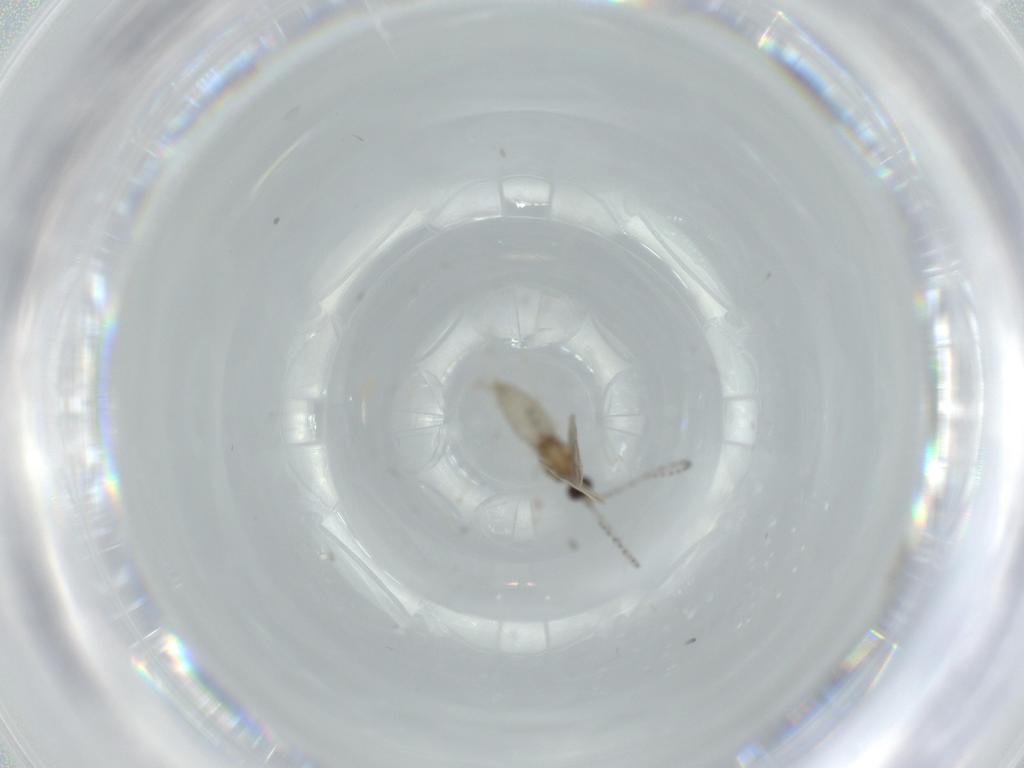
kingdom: Animalia
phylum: Arthropoda
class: Insecta
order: Diptera
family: Cecidomyiidae
